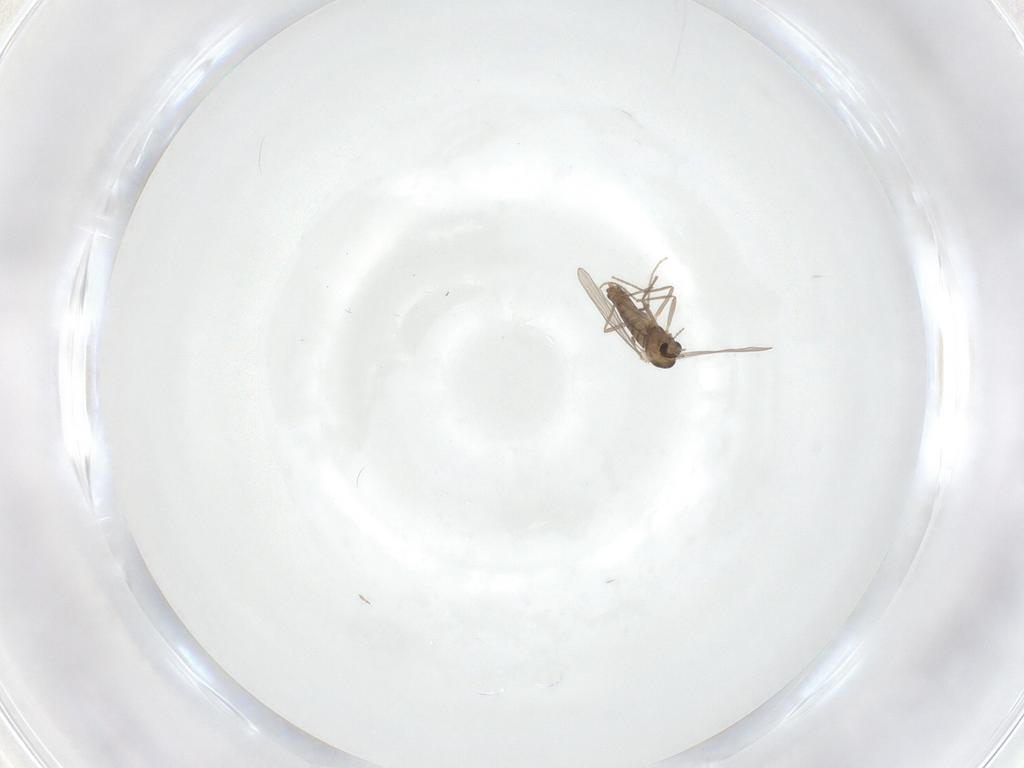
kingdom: Animalia
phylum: Arthropoda
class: Insecta
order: Diptera
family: Chironomidae
